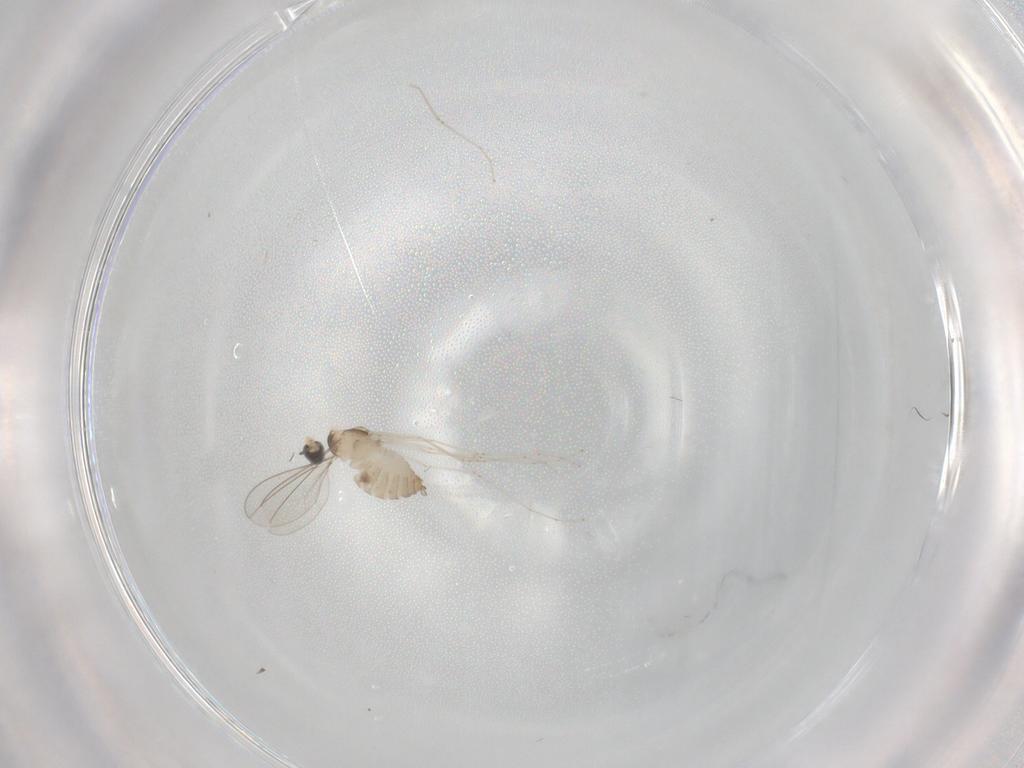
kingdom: Animalia
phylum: Arthropoda
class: Insecta
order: Diptera
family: Cecidomyiidae
